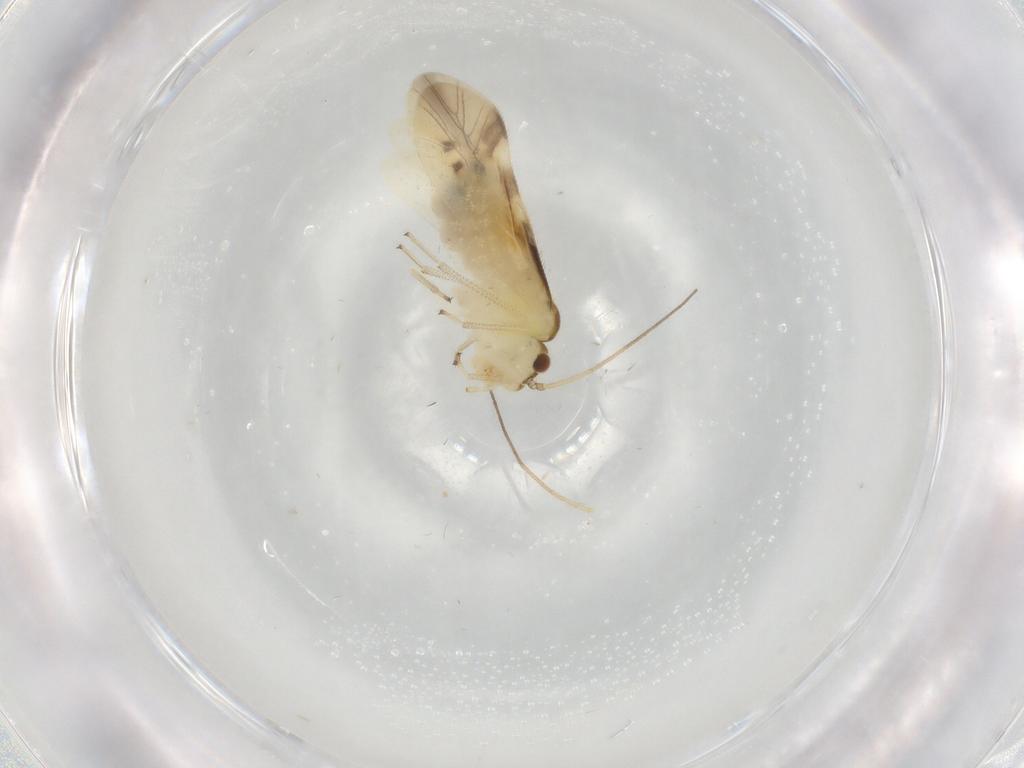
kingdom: Animalia
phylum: Arthropoda
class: Insecta
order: Psocodea
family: Caeciliusidae
